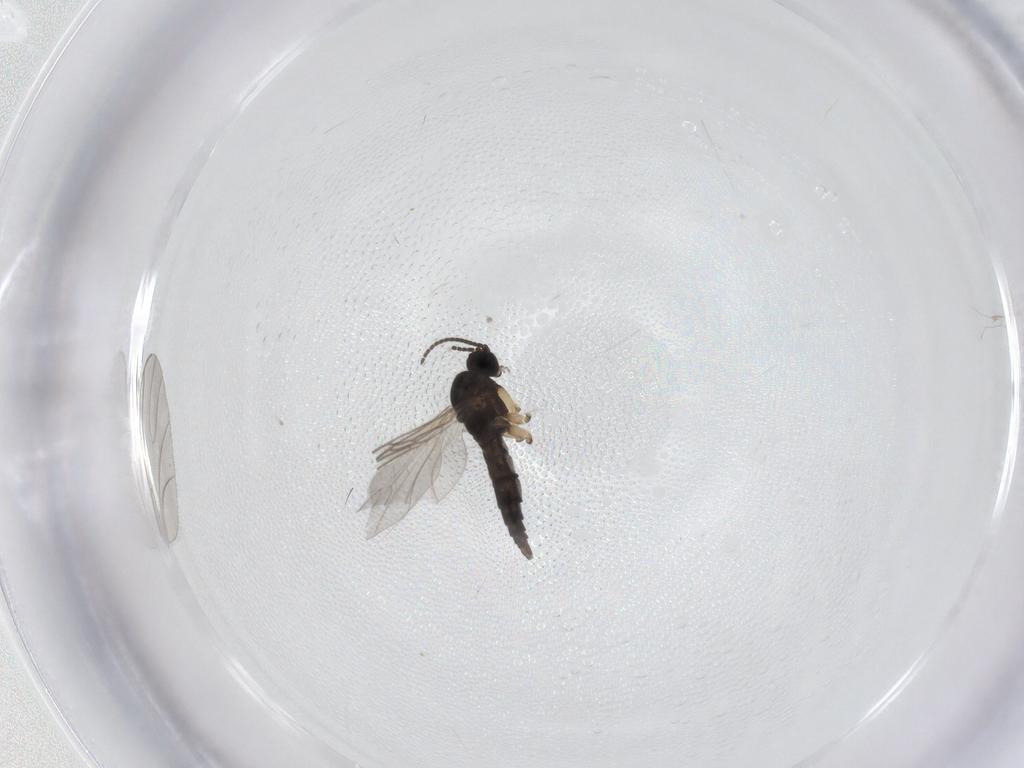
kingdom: Animalia
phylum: Arthropoda
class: Insecta
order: Diptera
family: Sciaridae
